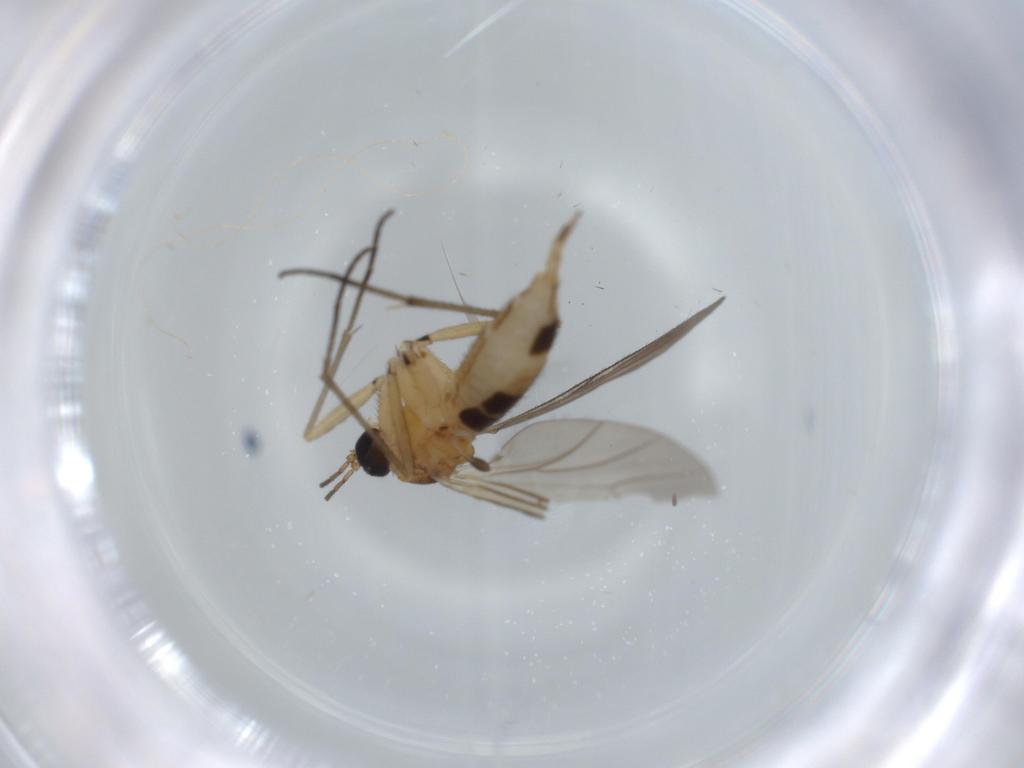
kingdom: Animalia
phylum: Arthropoda
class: Insecta
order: Diptera
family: Sciaridae
